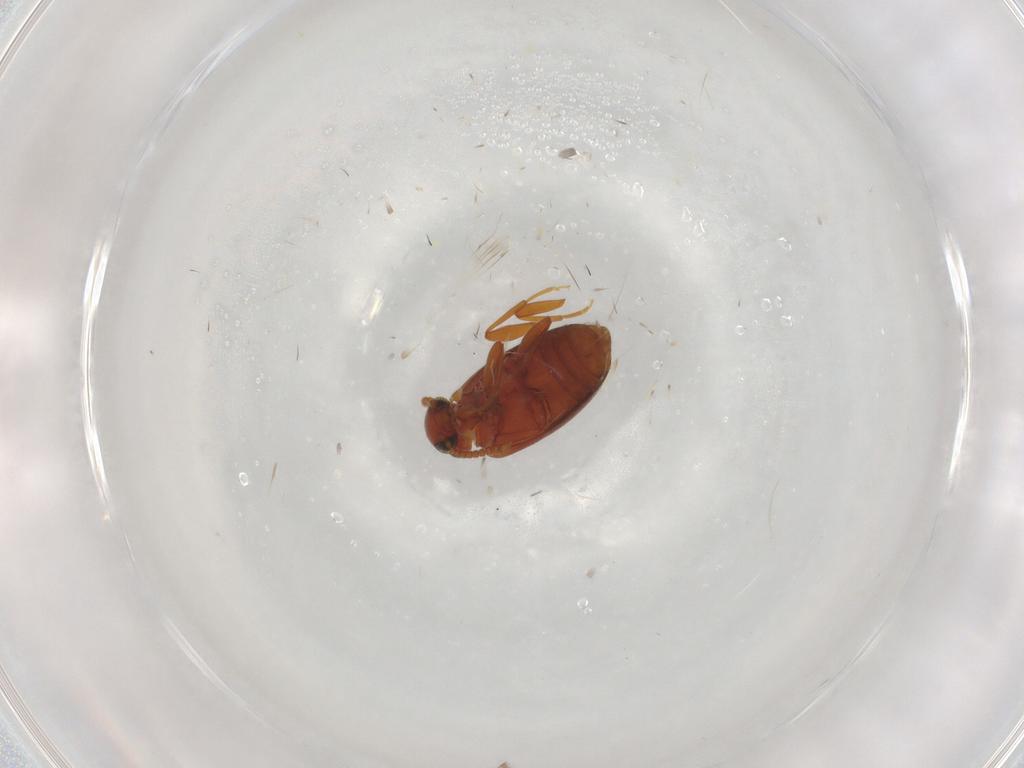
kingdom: Animalia
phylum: Arthropoda
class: Insecta
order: Coleoptera
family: Aderidae
